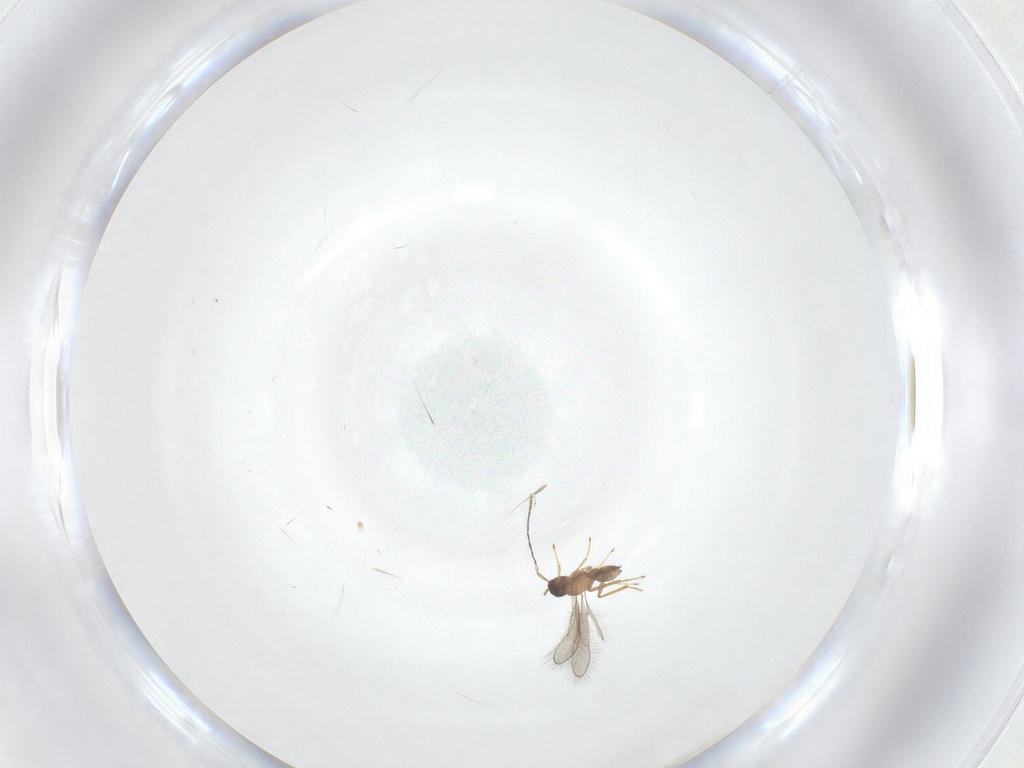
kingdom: Animalia
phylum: Arthropoda
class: Insecta
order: Hymenoptera
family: Mymaridae
